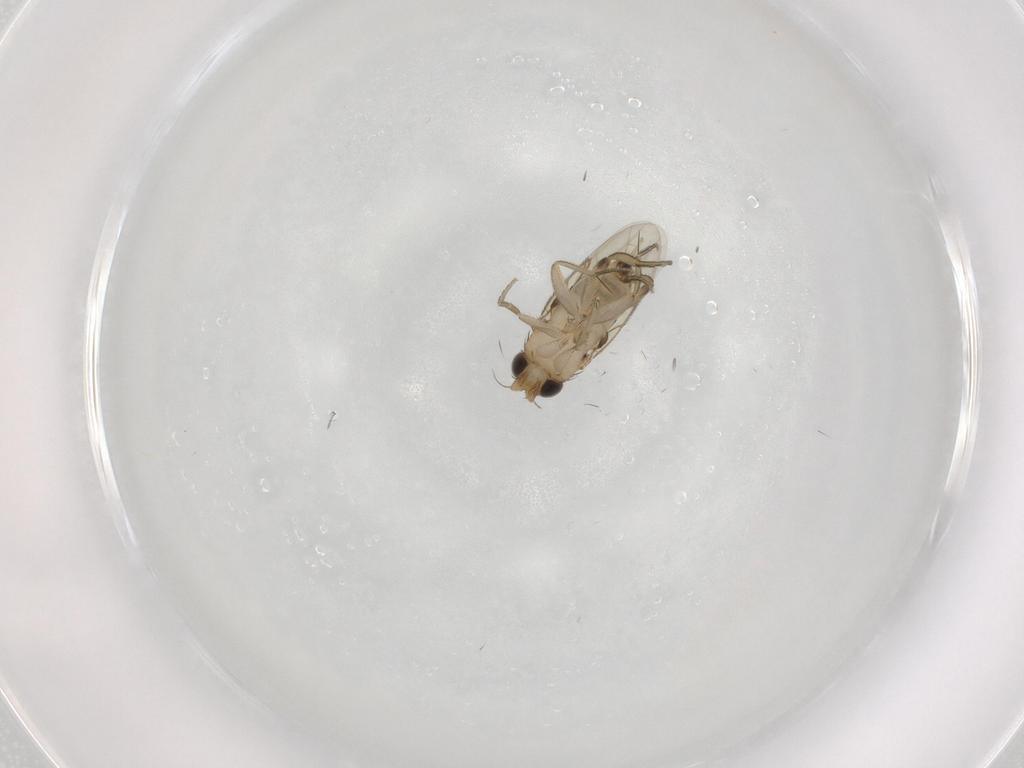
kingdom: Animalia
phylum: Arthropoda
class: Insecta
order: Diptera
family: Phoridae
